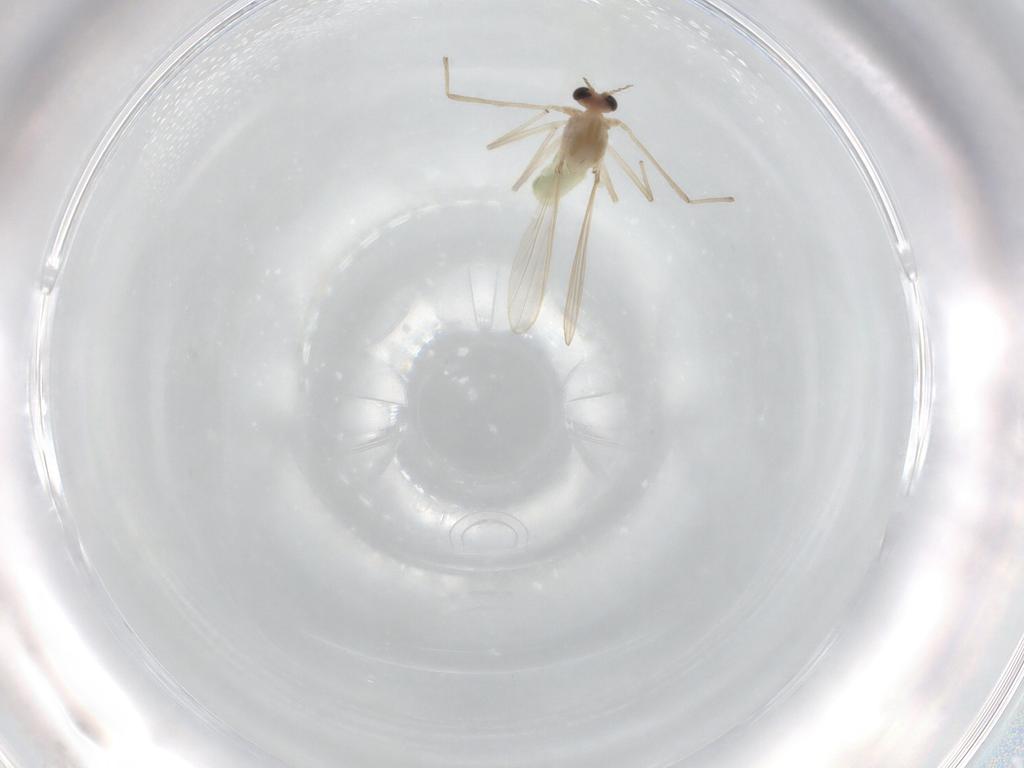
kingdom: Animalia
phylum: Arthropoda
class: Insecta
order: Diptera
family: Chironomidae
